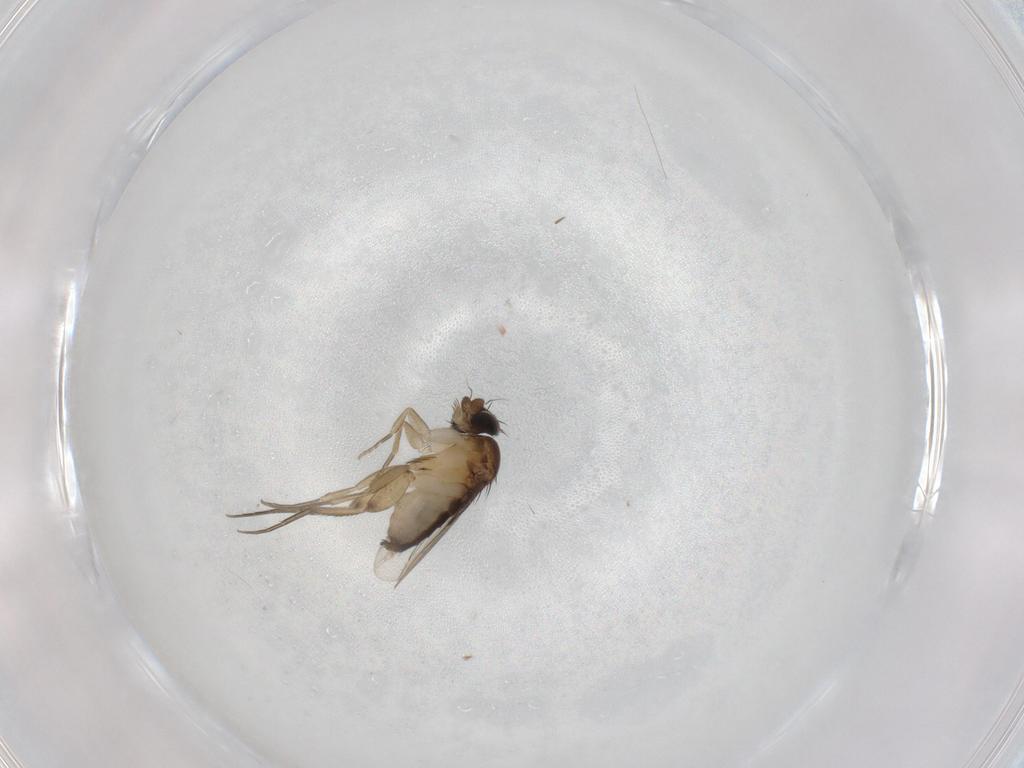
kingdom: Animalia
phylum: Arthropoda
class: Insecta
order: Diptera
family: Phoridae
